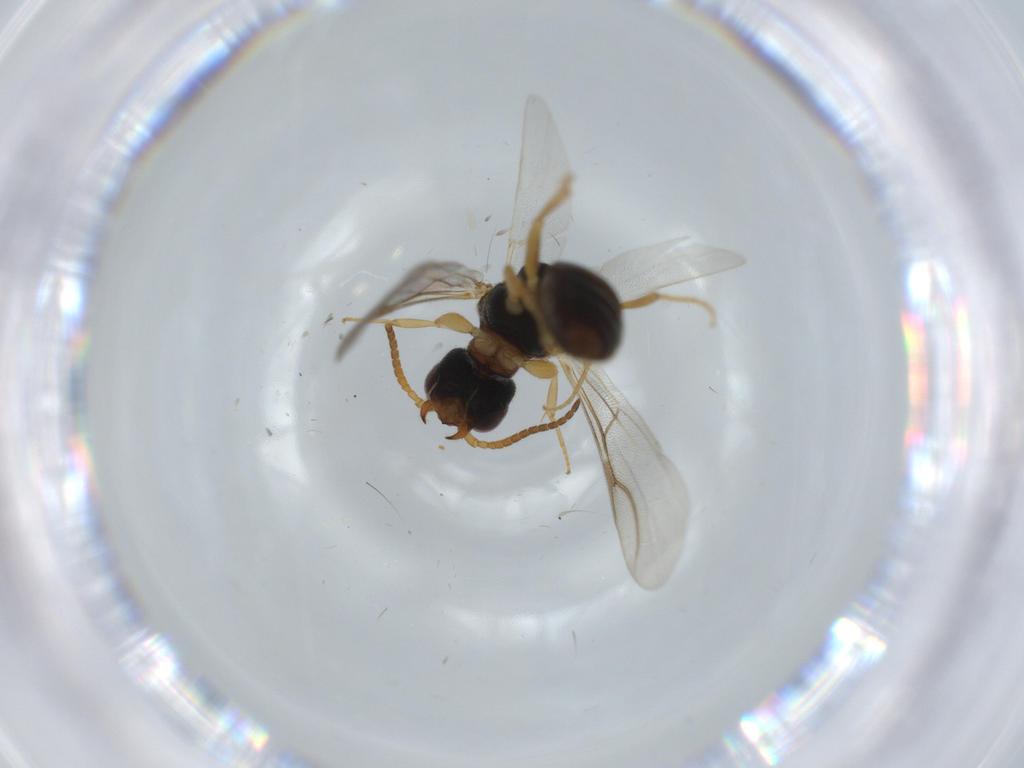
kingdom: Animalia
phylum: Arthropoda
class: Insecta
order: Hymenoptera
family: Bethylidae
